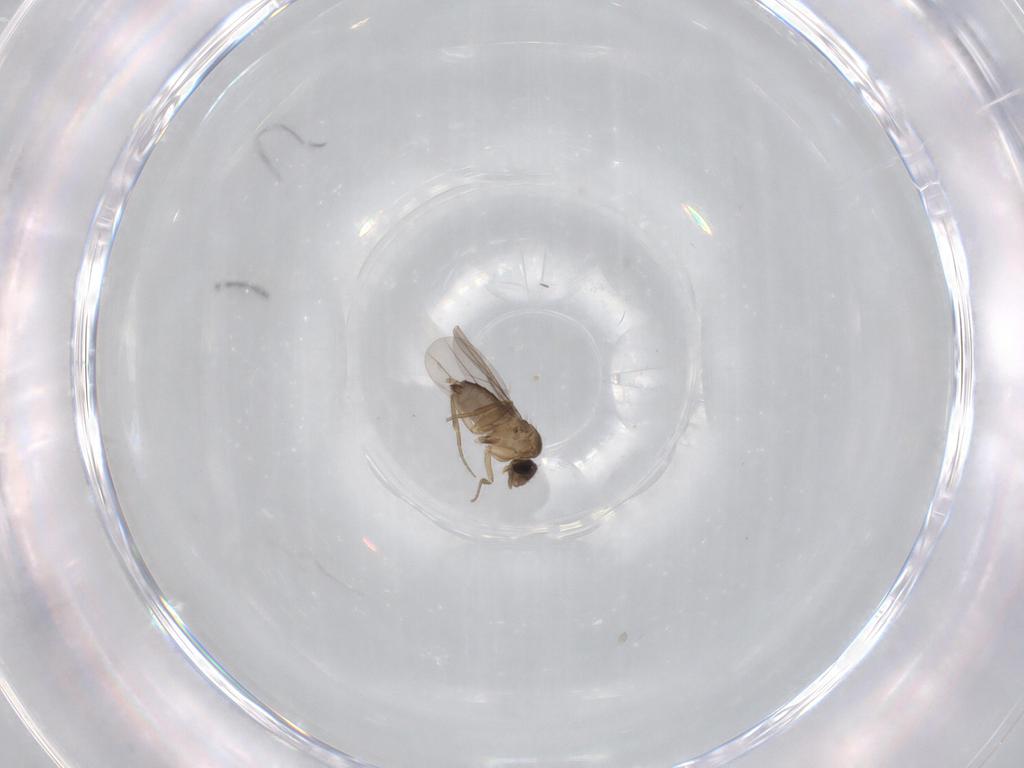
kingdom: Animalia
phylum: Arthropoda
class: Insecta
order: Diptera
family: Phoridae
